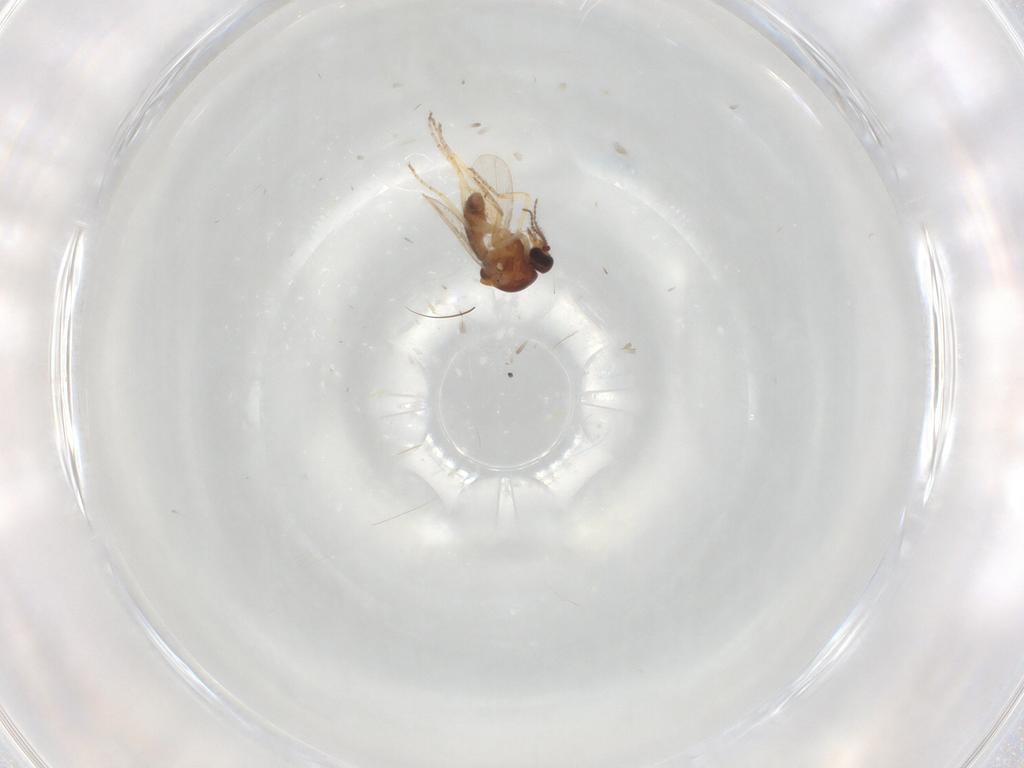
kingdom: Animalia
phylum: Arthropoda
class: Insecta
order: Diptera
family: Ceratopogonidae
